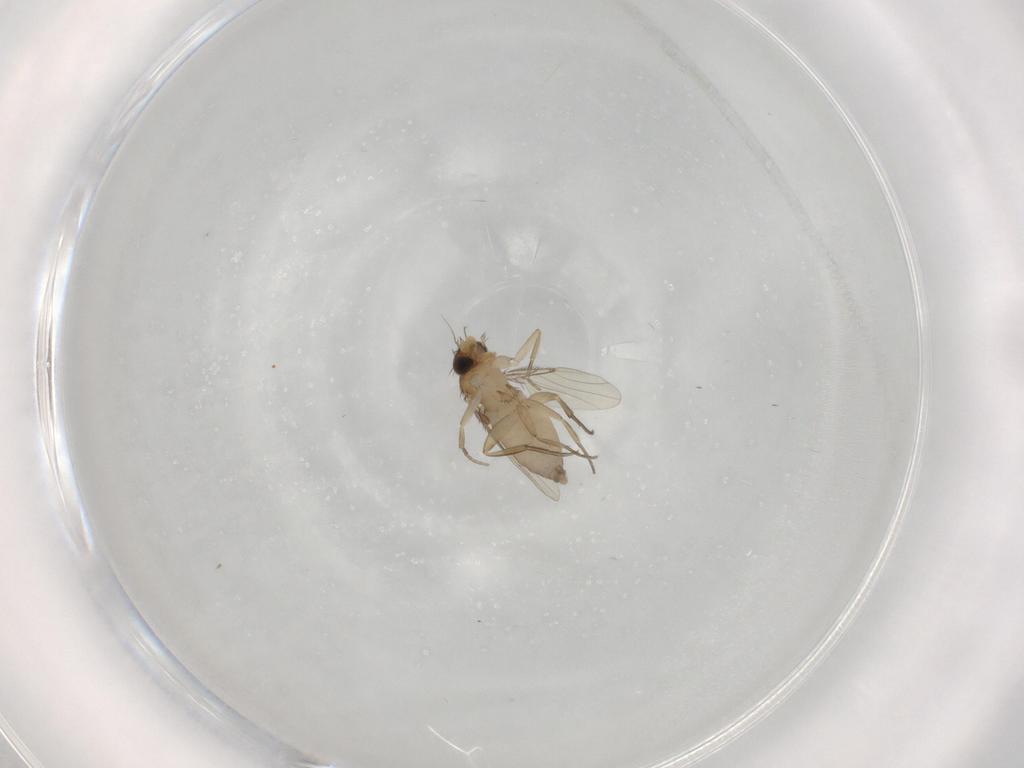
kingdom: Animalia
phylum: Arthropoda
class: Insecta
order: Diptera
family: Phoridae
